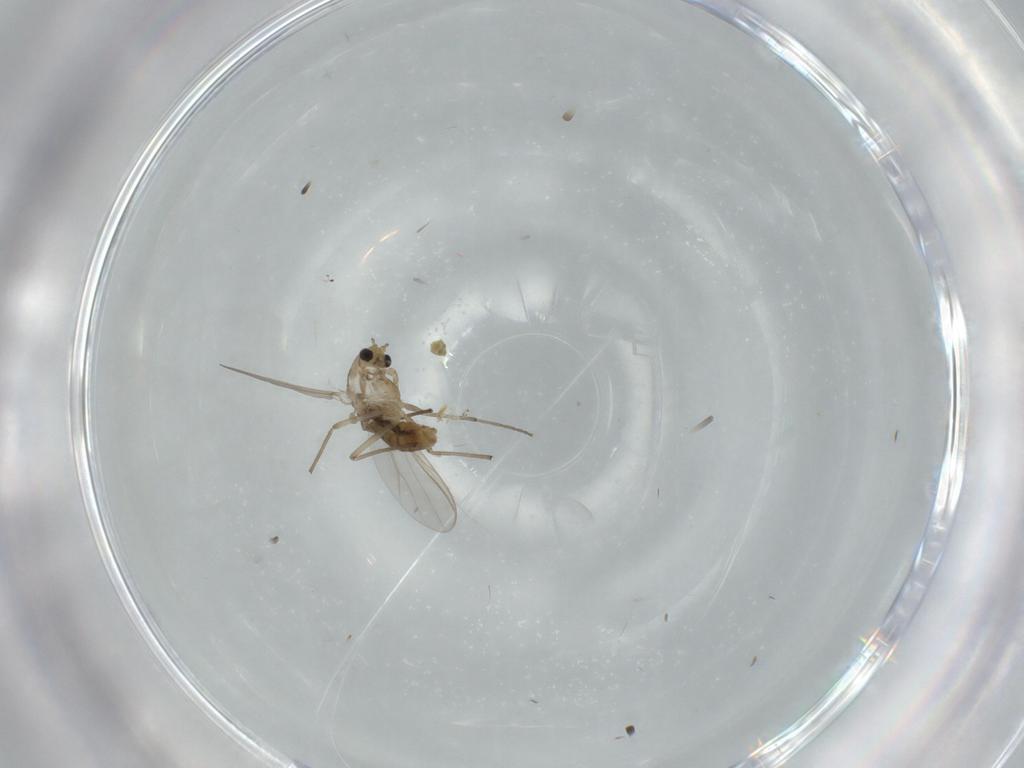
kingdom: Animalia
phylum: Arthropoda
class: Insecta
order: Diptera
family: Chironomidae
